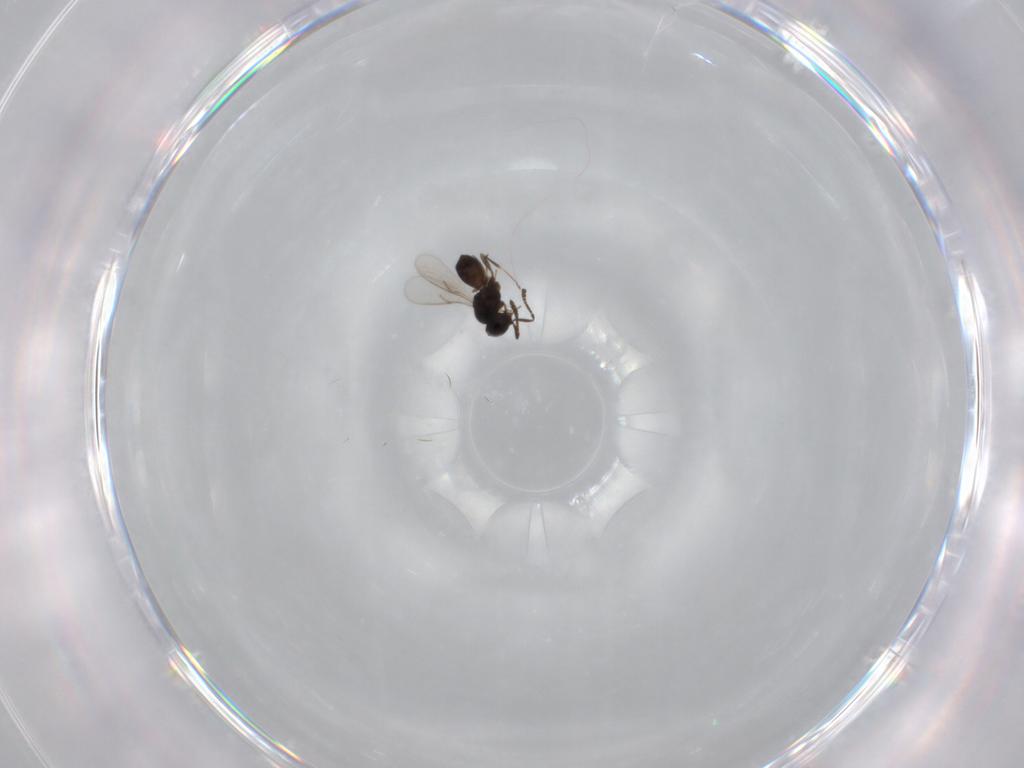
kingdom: Animalia
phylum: Arthropoda
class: Insecta
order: Hymenoptera
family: Scelionidae
